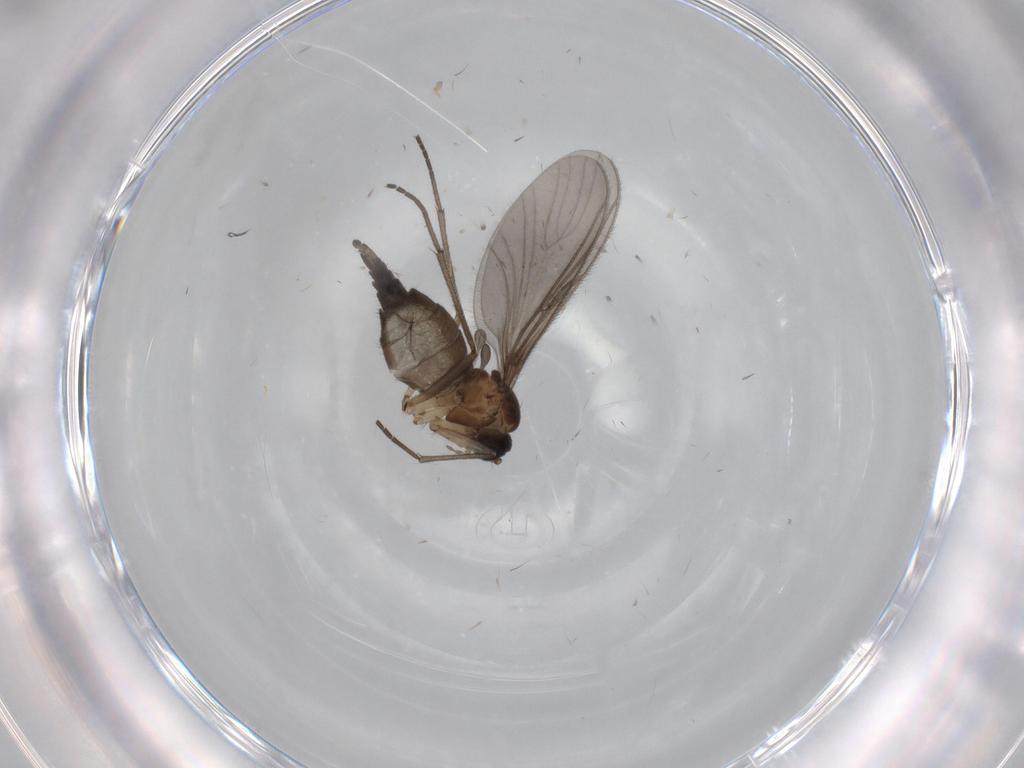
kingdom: Animalia
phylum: Arthropoda
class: Insecta
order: Diptera
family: Sciaridae
